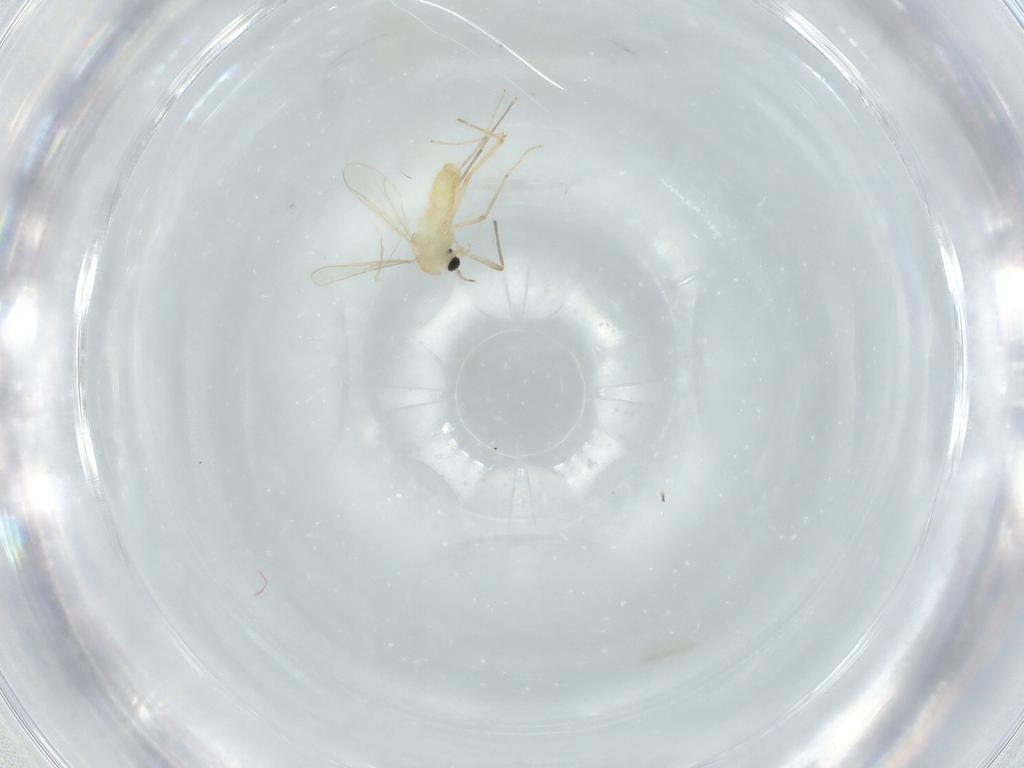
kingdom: Animalia
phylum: Arthropoda
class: Insecta
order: Diptera
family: Chironomidae
